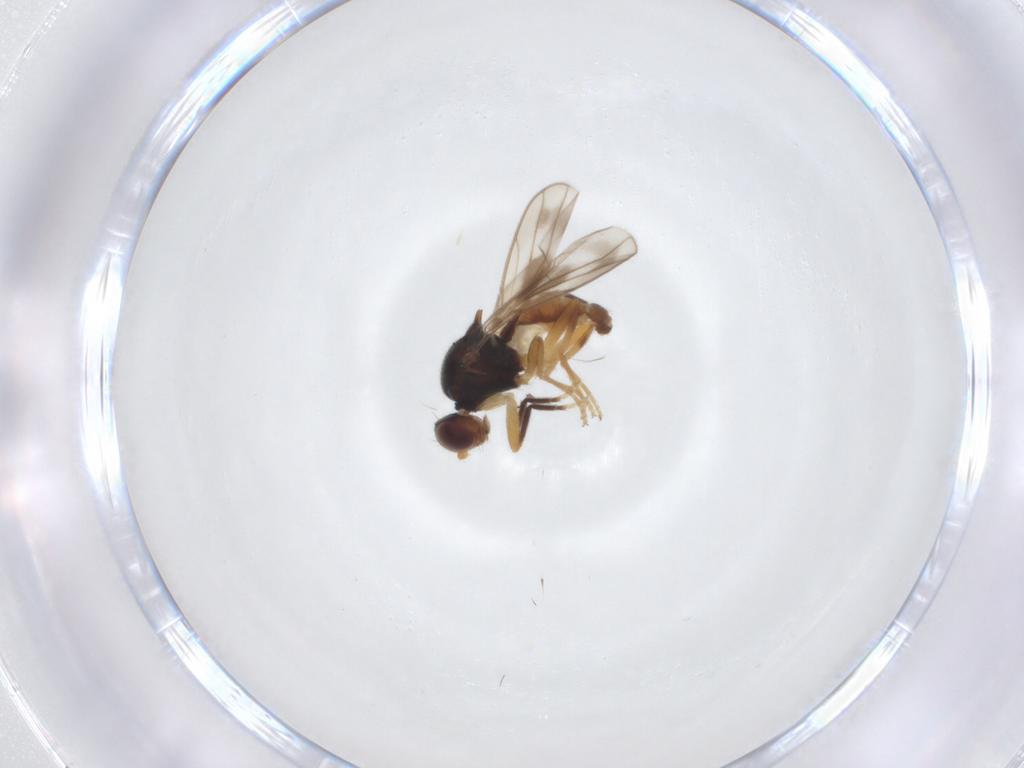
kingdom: Animalia
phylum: Arthropoda
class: Insecta
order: Diptera
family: Chloropidae
